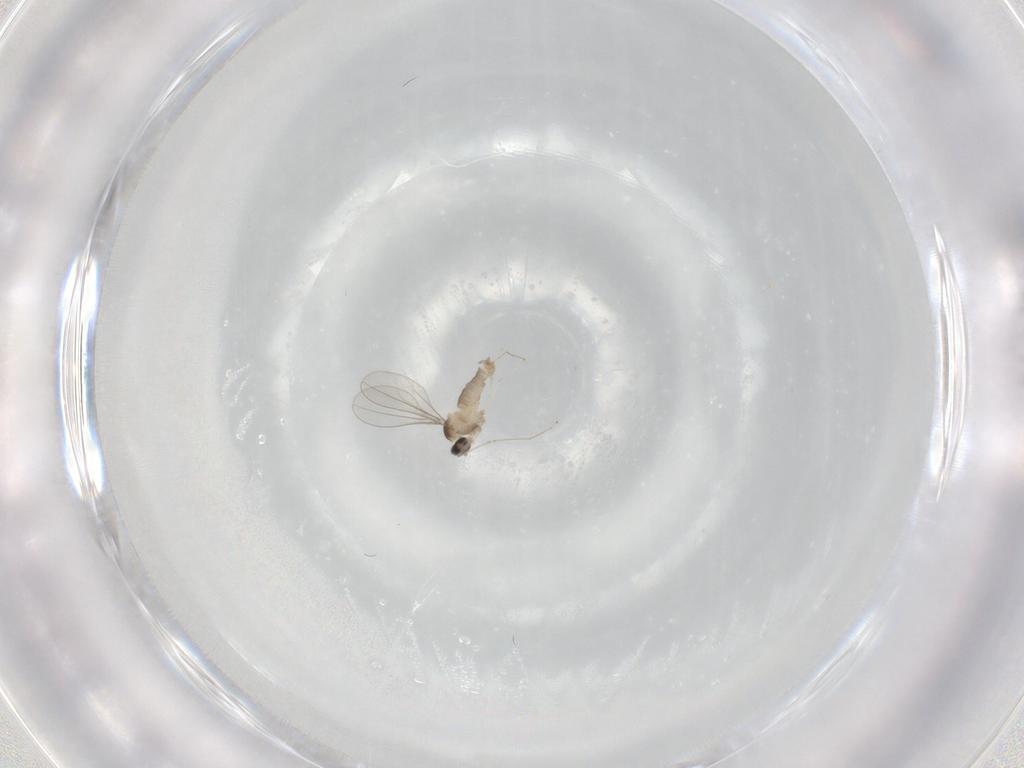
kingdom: Animalia
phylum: Arthropoda
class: Insecta
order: Diptera
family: Cecidomyiidae
